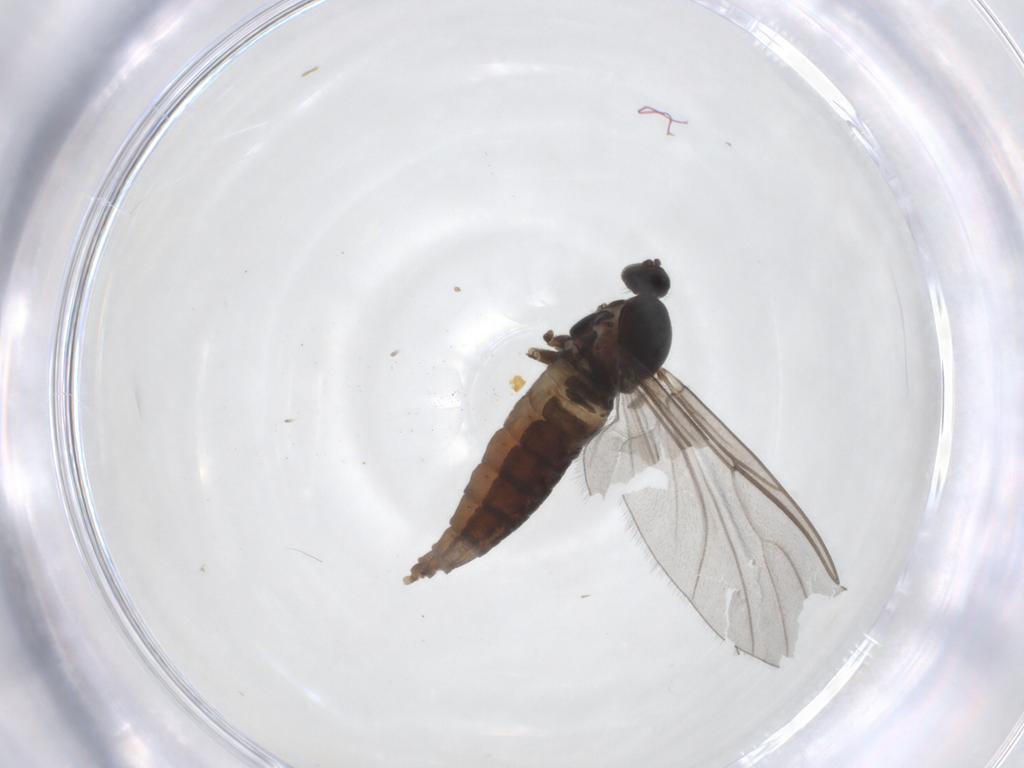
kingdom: Animalia
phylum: Arthropoda
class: Insecta
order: Diptera
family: Cecidomyiidae
